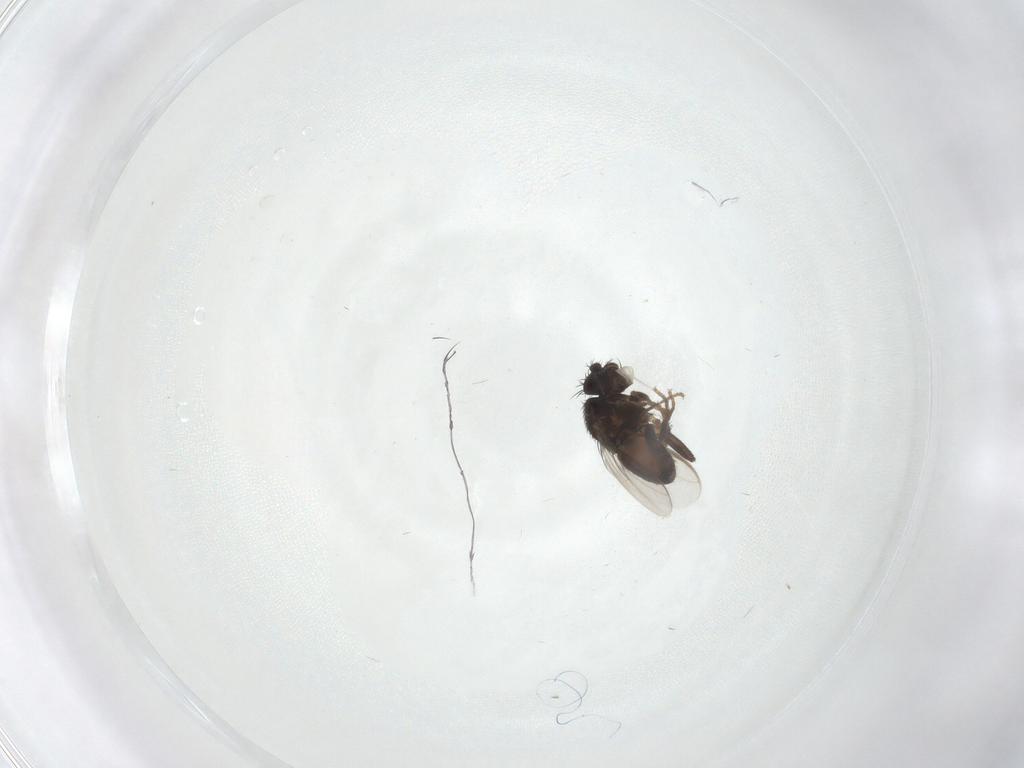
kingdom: Animalia
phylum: Arthropoda
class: Insecta
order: Diptera
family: Sphaeroceridae
